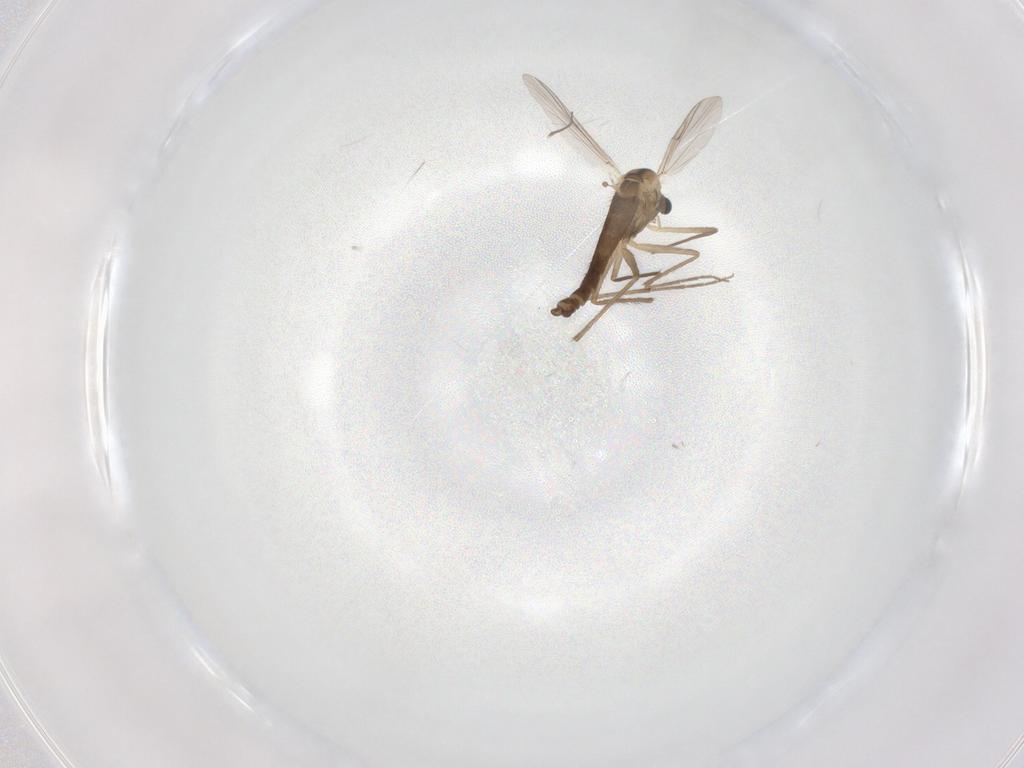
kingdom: Animalia
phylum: Arthropoda
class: Insecta
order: Diptera
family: Chironomidae
